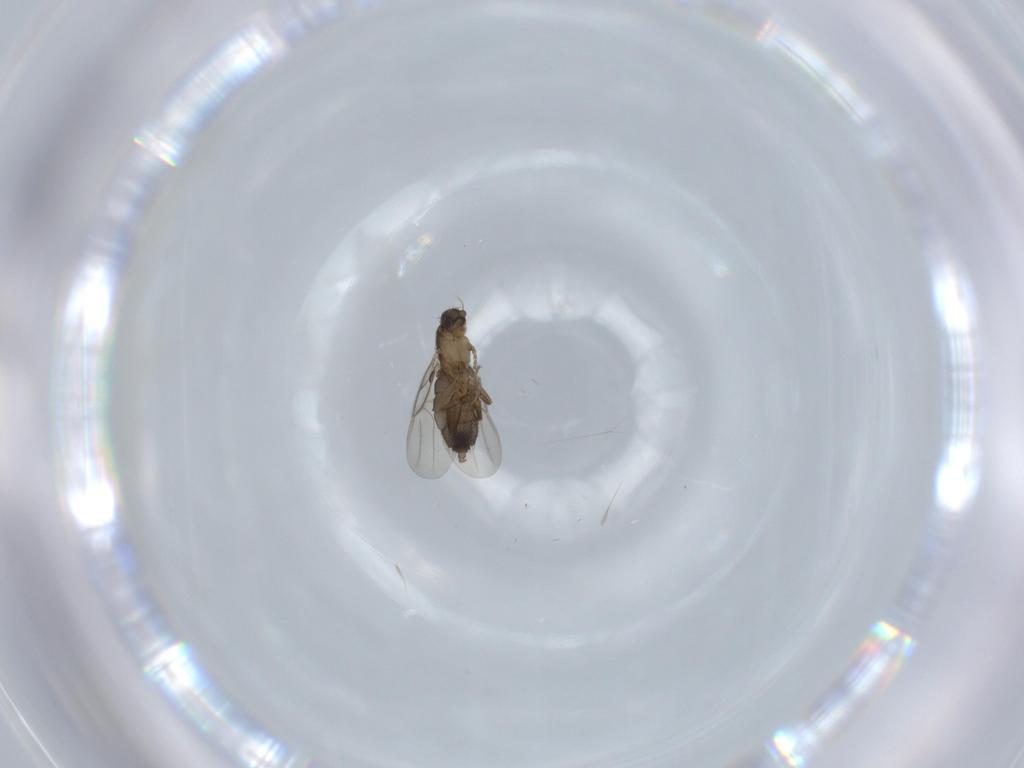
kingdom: Animalia
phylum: Arthropoda
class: Insecta
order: Diptera
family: Phoridae
